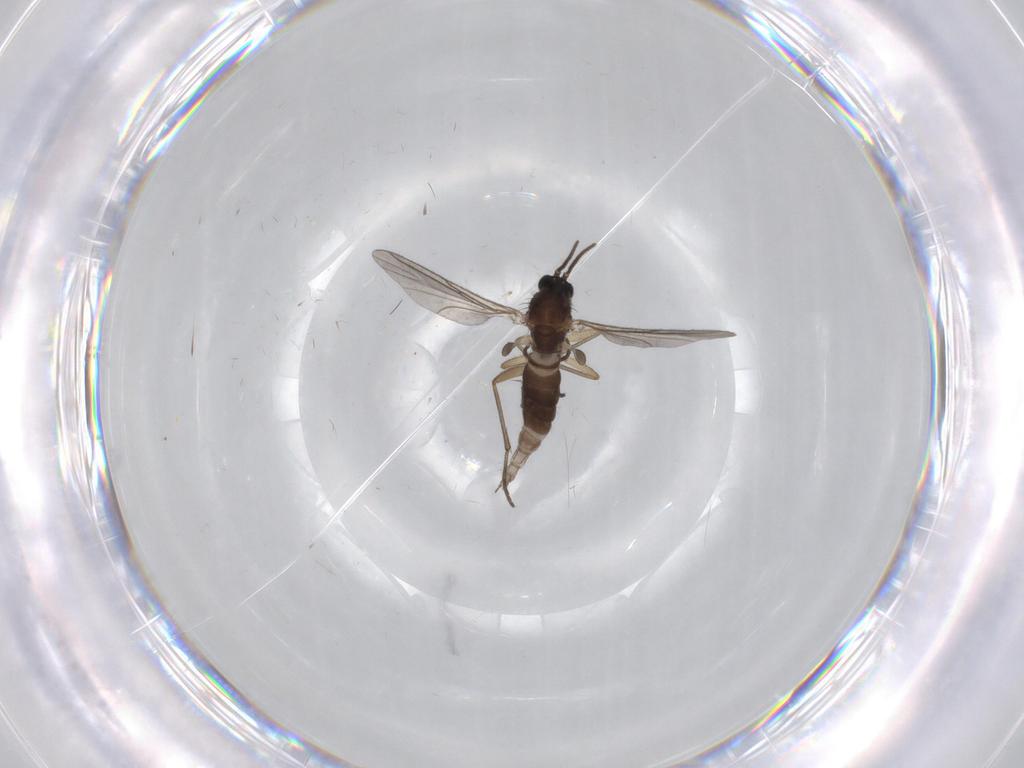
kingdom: Animalia
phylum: Arthropoda
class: Insecta
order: Diptera
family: Sciaridae
